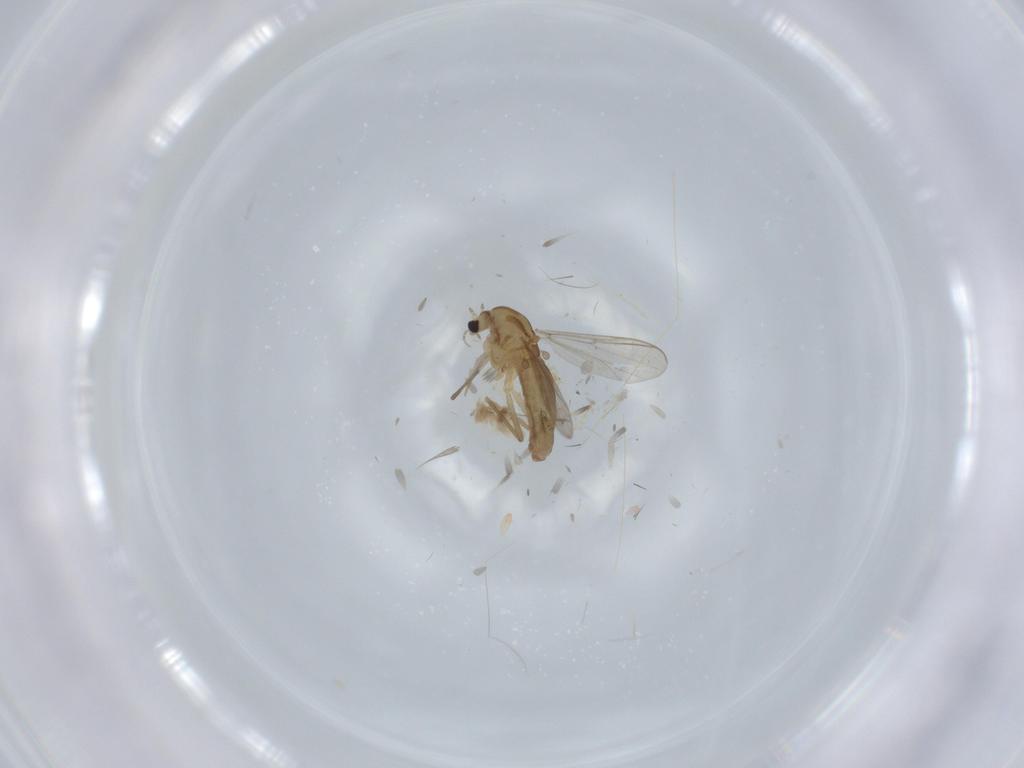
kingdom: Animalia
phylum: Arthropoda
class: Insecta
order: Diptera
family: Chironomidae
